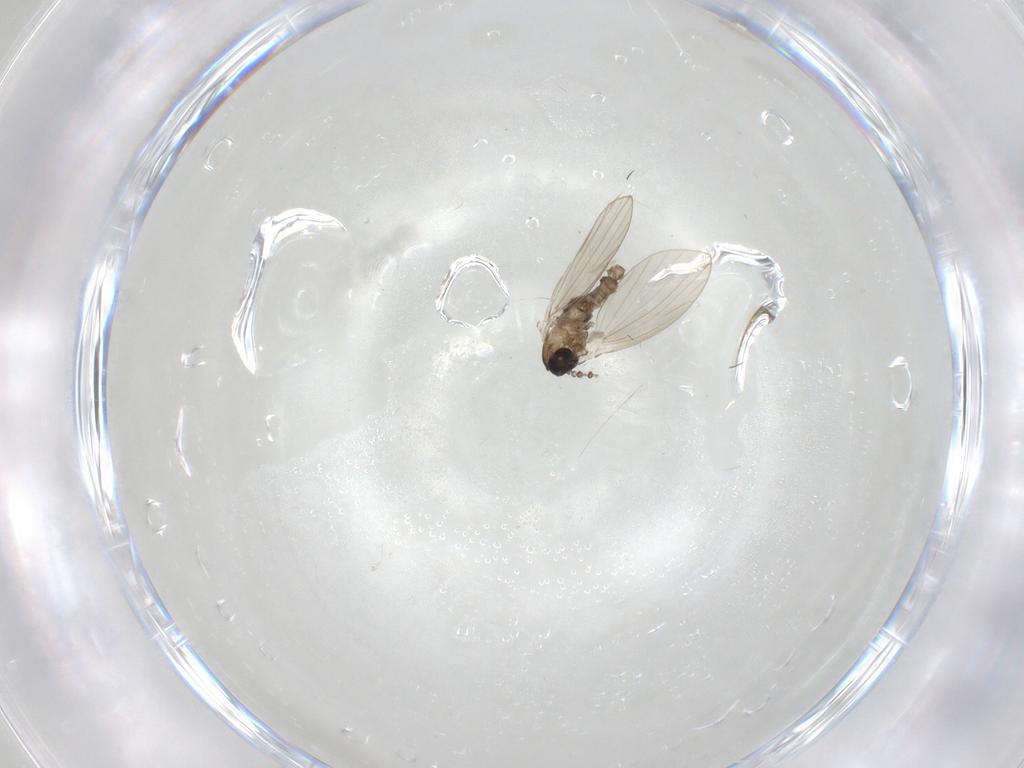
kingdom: Animalia
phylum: Arthropoda
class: Insecta
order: Diptera
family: Psychodidae
